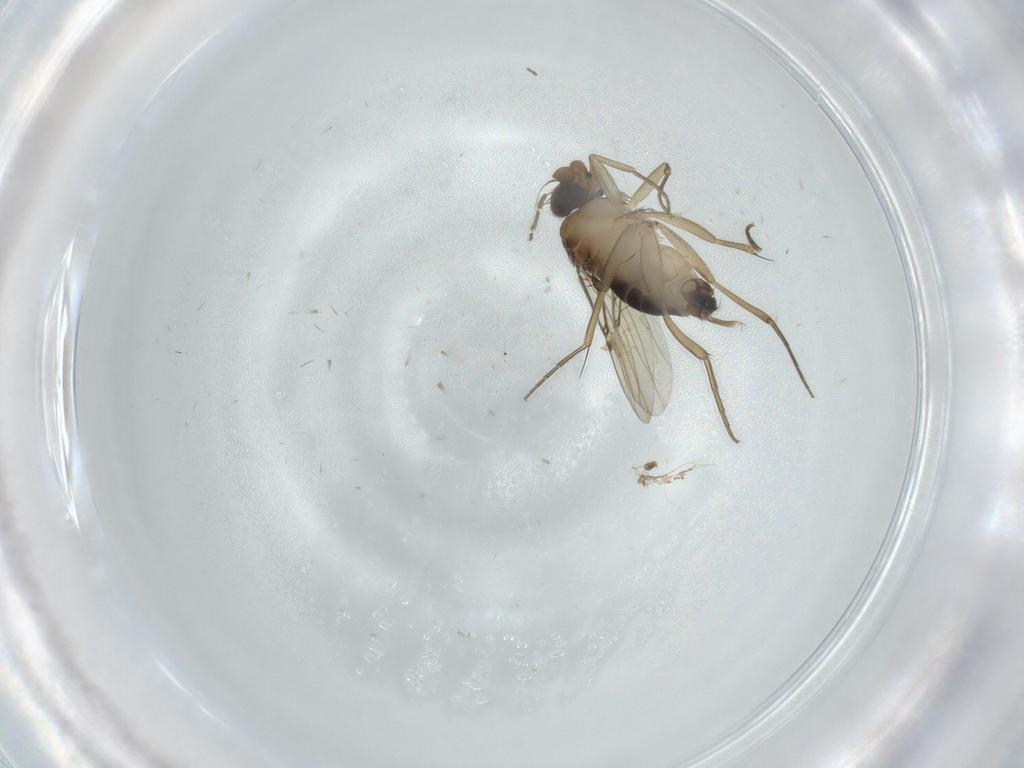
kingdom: Animalia
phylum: Arthropoda
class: Insecta
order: Diptera
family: Phoridae
